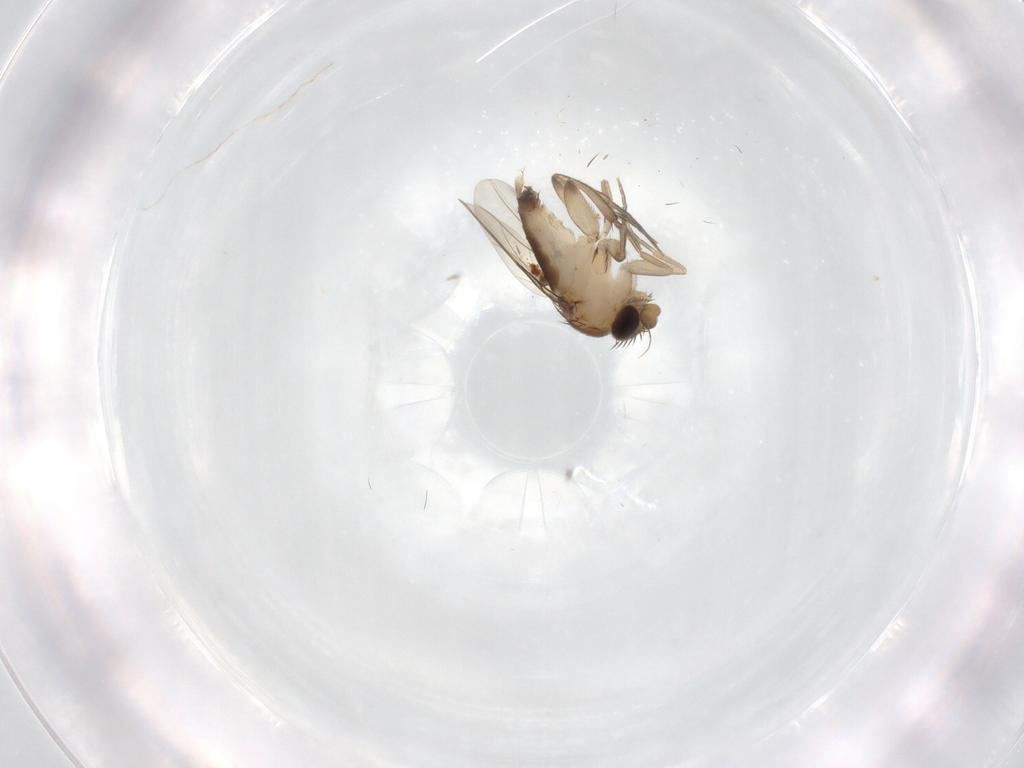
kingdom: Animalia
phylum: Arthropoda
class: Insecta
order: Diptera
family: Phoridae
